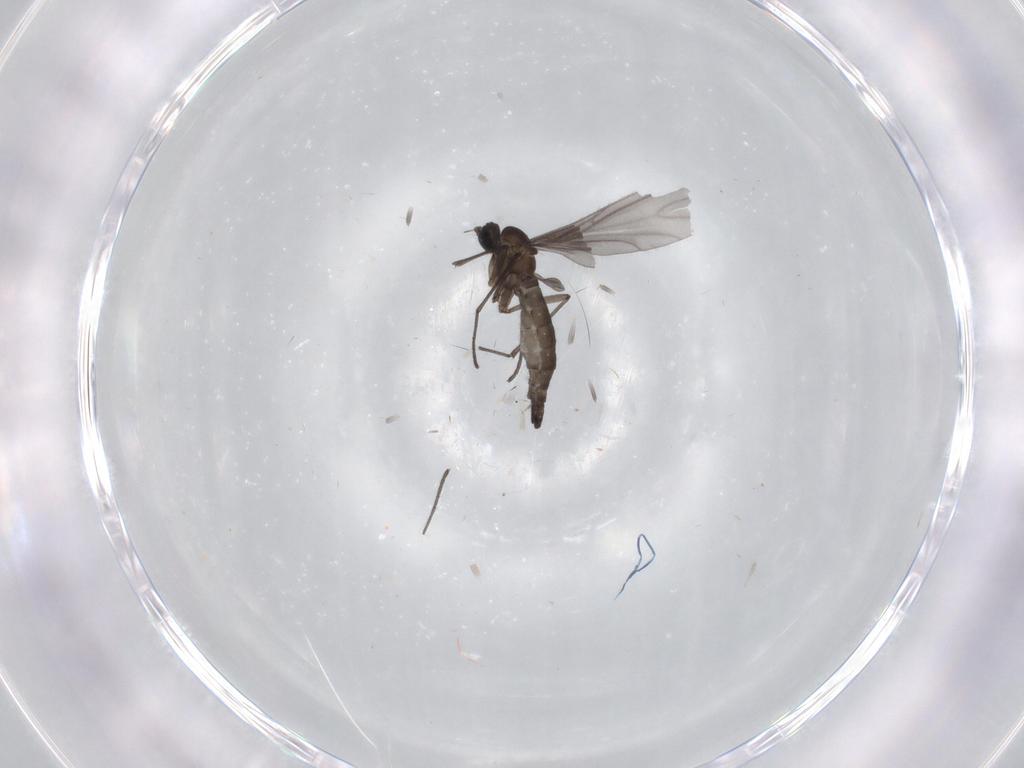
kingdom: Animalia
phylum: Arthropoda
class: Insecta
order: Diptera
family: Sciaridae
